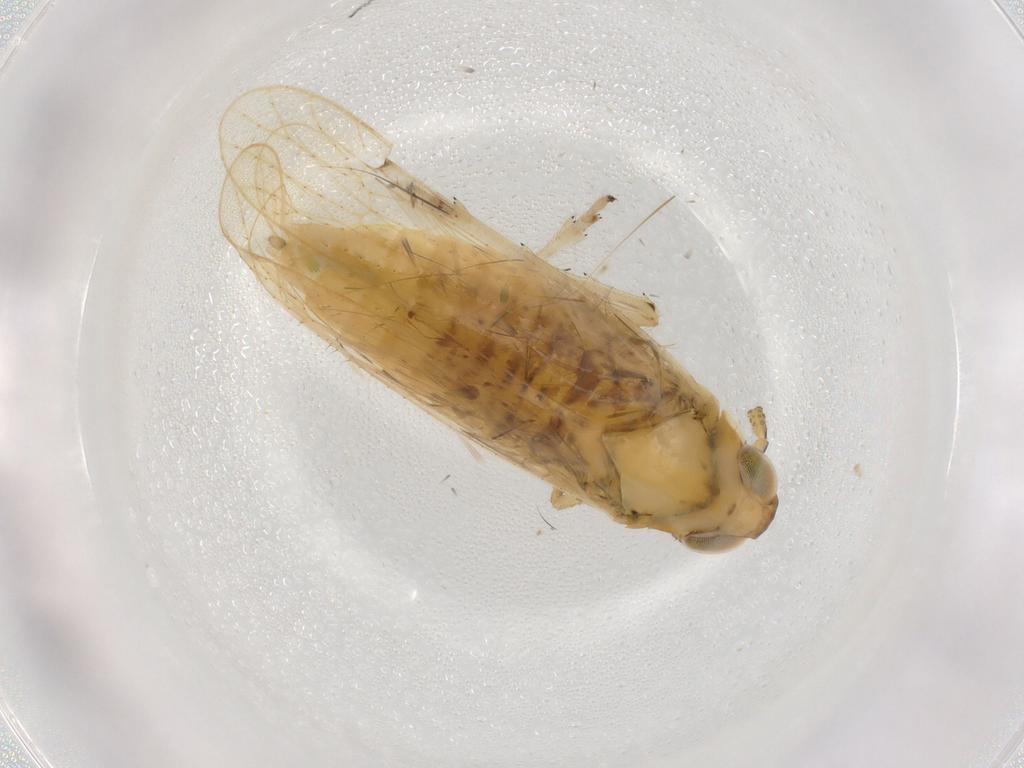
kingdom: Animalia
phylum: Arthropoda
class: Insecta
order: Hemiptera
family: Delphacidae
